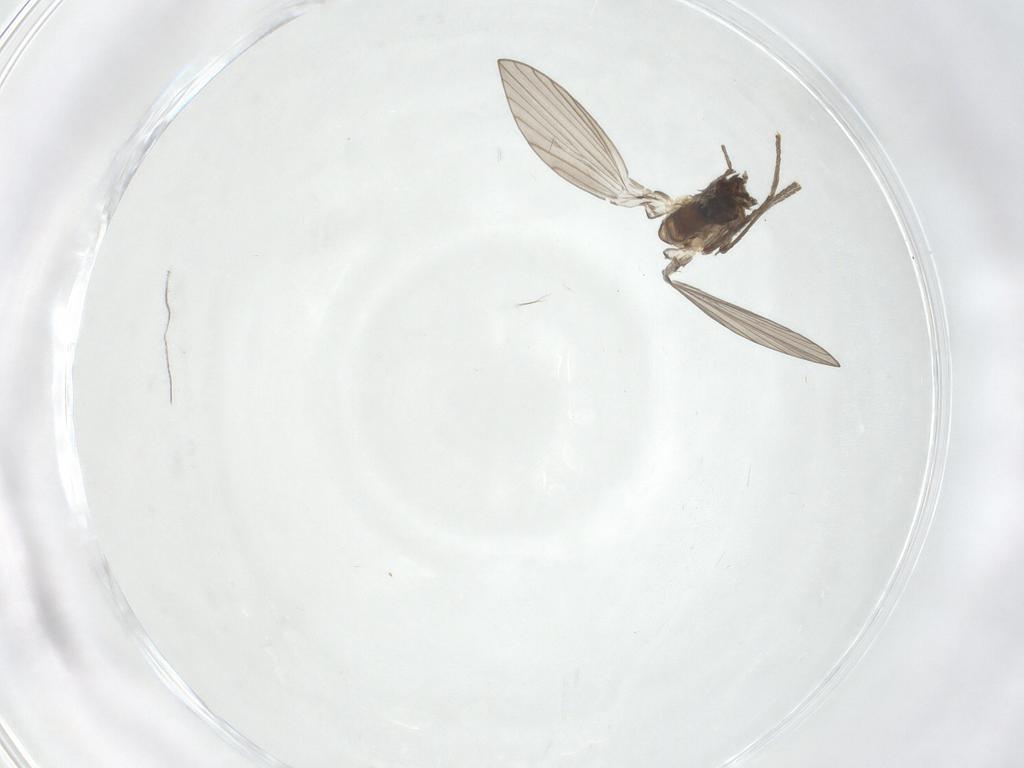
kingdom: Animalia
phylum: Arthropoda
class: Insecta
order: Diptera
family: Psychodidae
